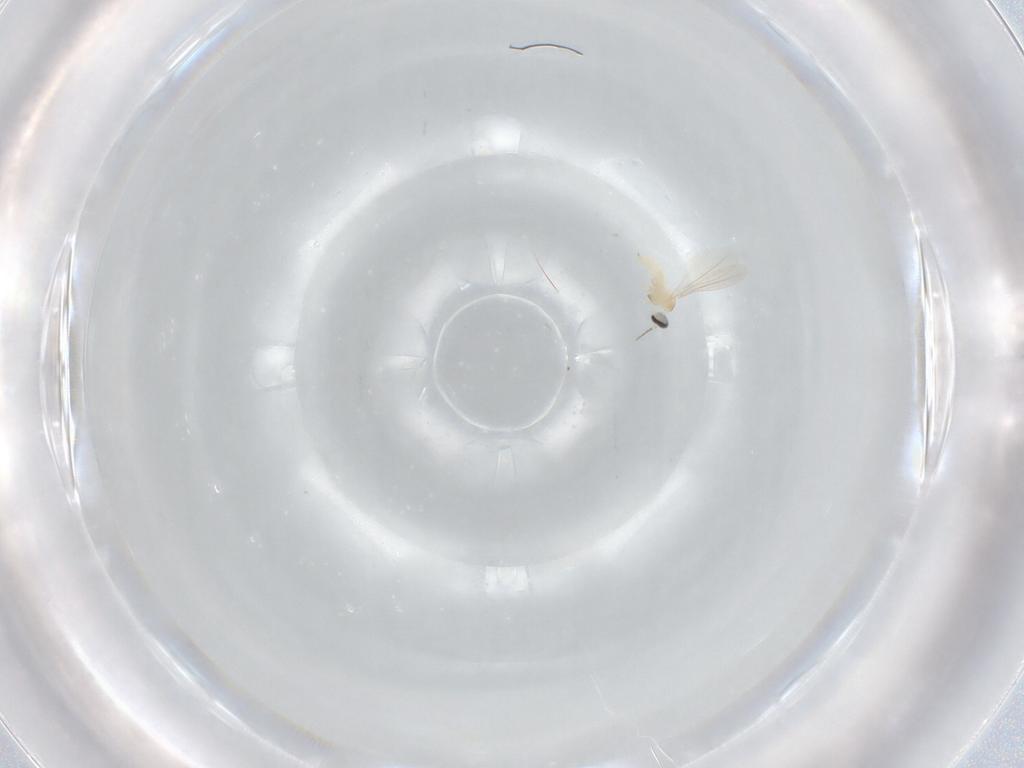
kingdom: Animalia
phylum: Arthropoda
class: Insecta
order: Diptera
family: Cecidomyiidae
